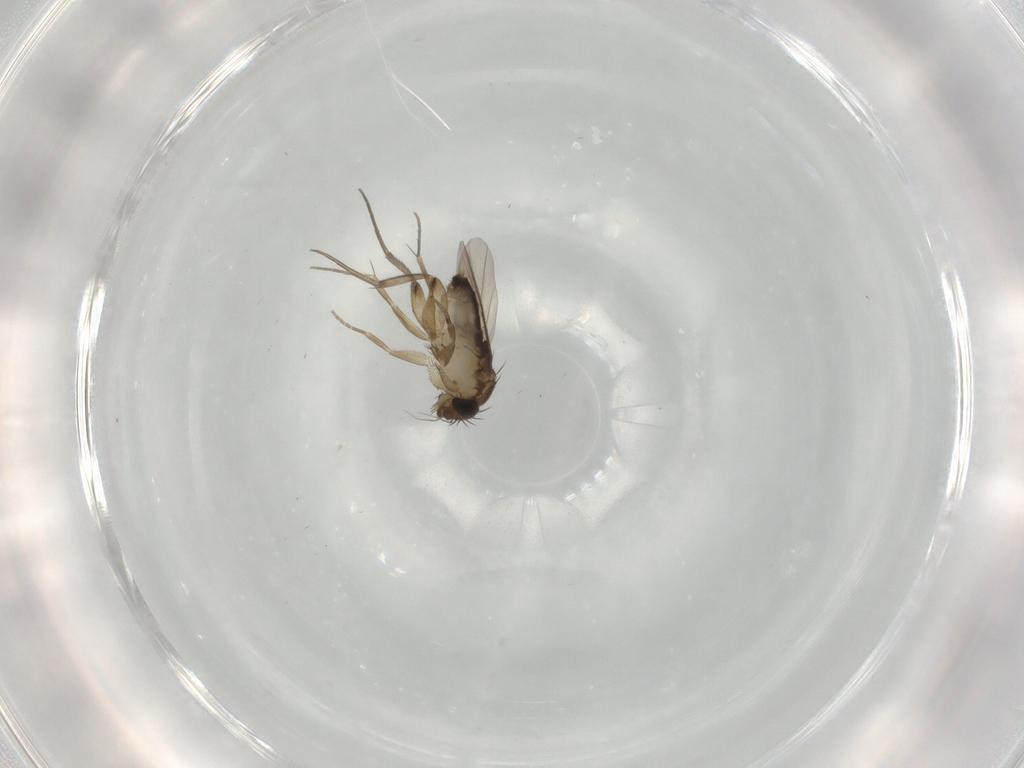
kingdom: Animalia
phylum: Arthropoda
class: Insecta
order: Diptera
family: Phoridae
